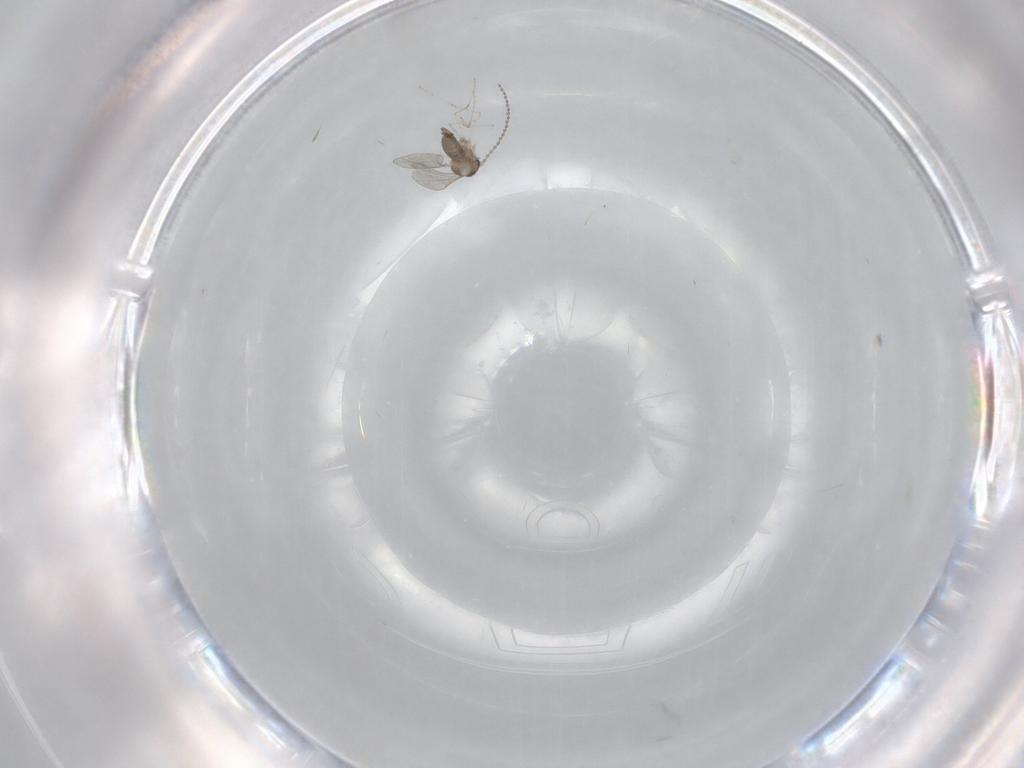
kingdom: Animalia
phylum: Arthropoda
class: Insecta
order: Diptera
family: Cecidomyiidae
